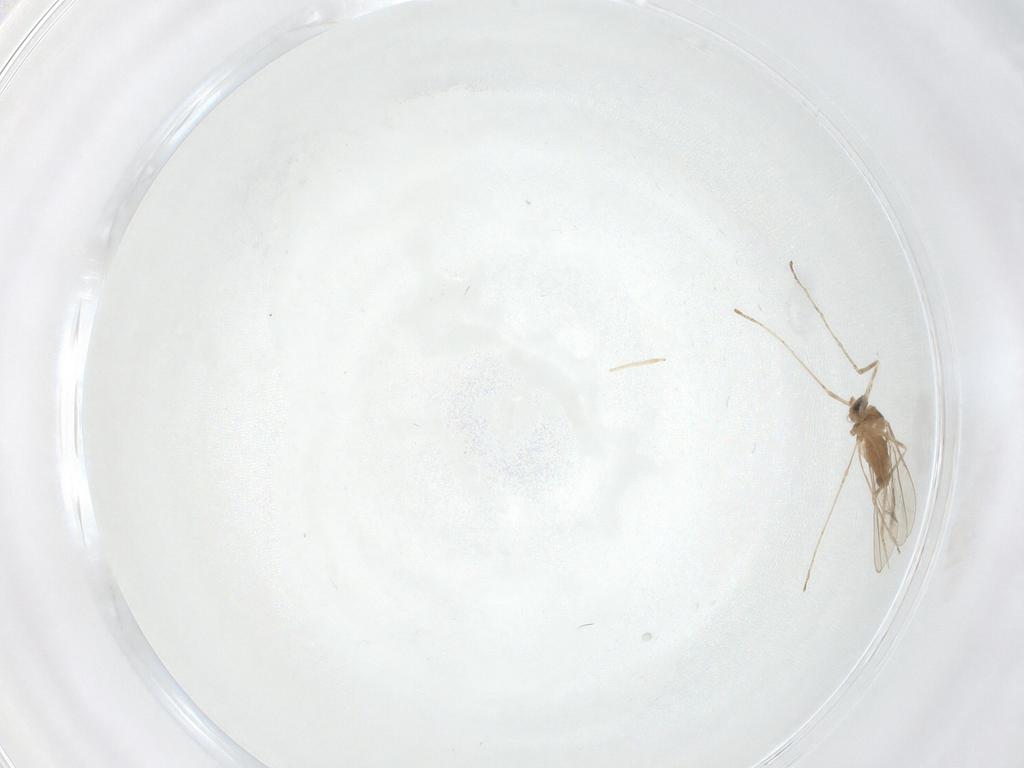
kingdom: Animalia
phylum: Arthropoda
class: Insecta
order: Diptera
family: Cecidomyiidae
